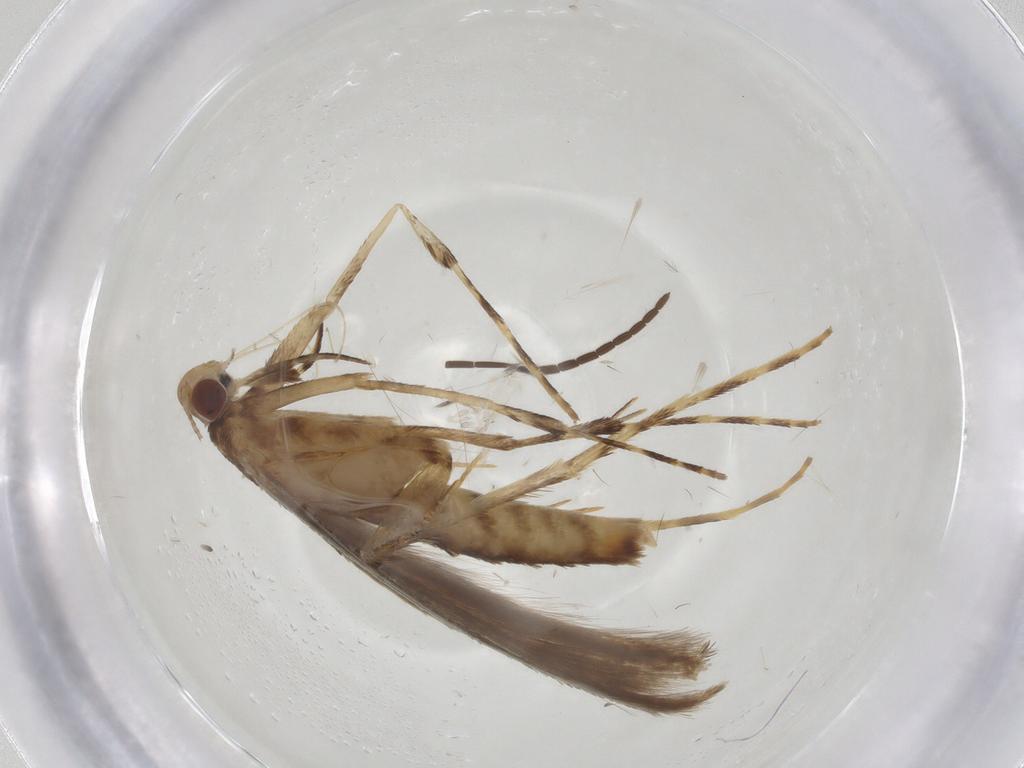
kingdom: Animalia
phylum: Arthropoda
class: Insecta
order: Lepidoptera
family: Gracillariidae
